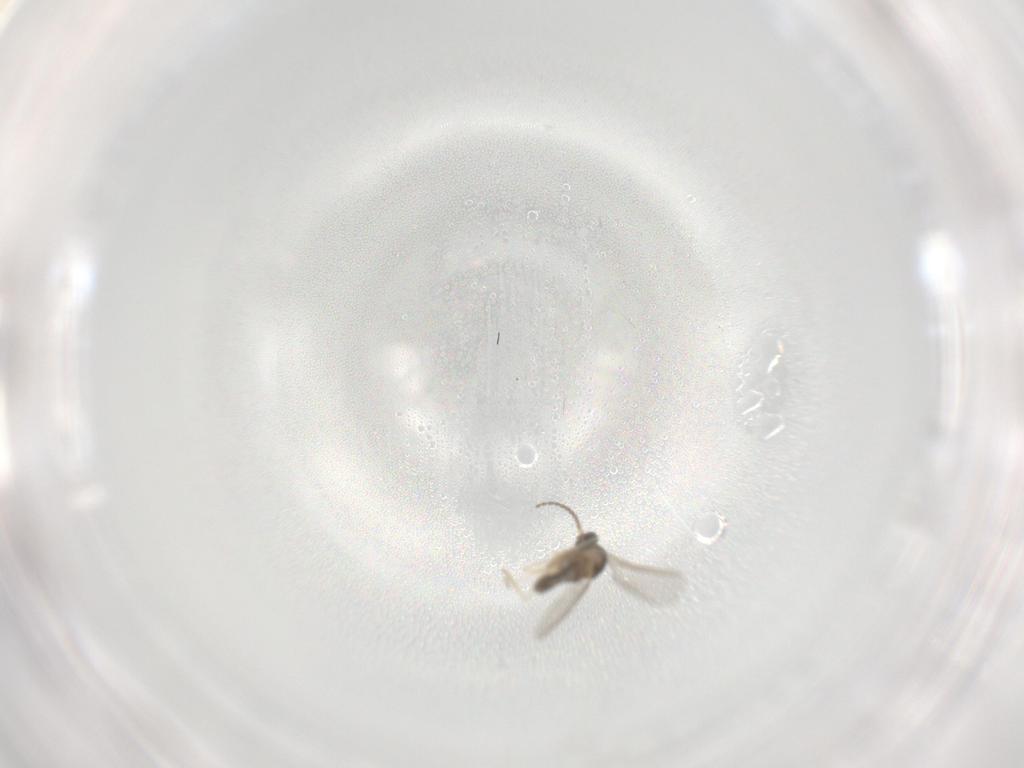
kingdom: Animalia
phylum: Arthropoda
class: Insecta
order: Diptera
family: Cecidomyiidae
